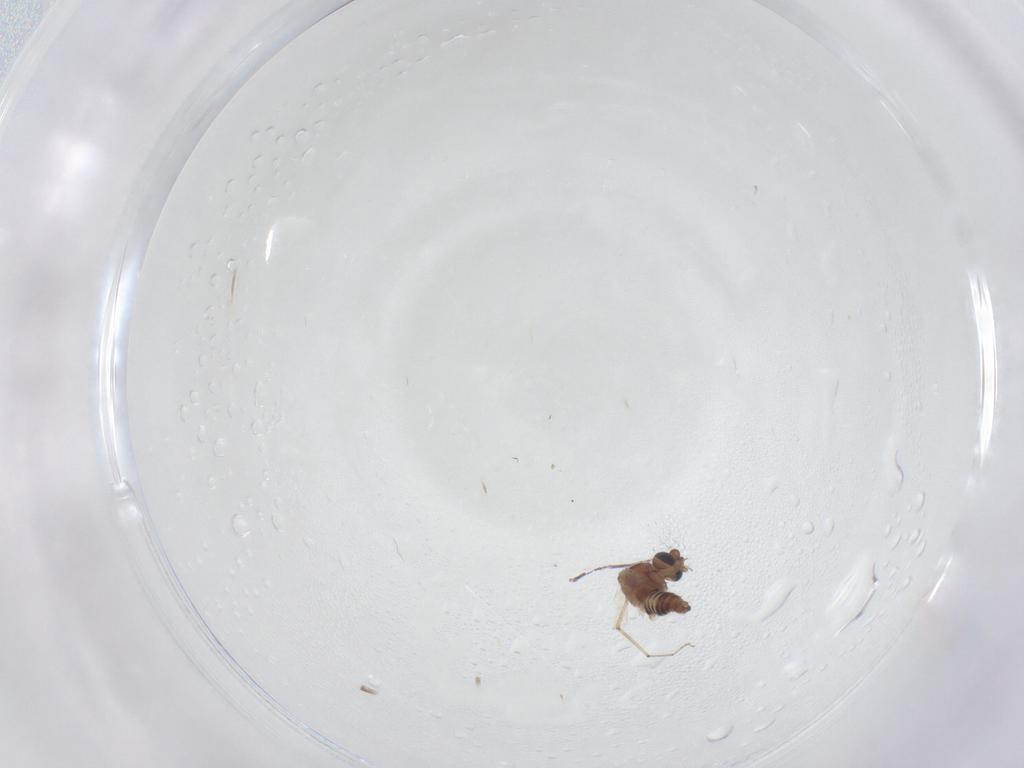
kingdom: Animalia
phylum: Arthropoda
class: Insecta
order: Diptera
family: Ceratopogonidae
